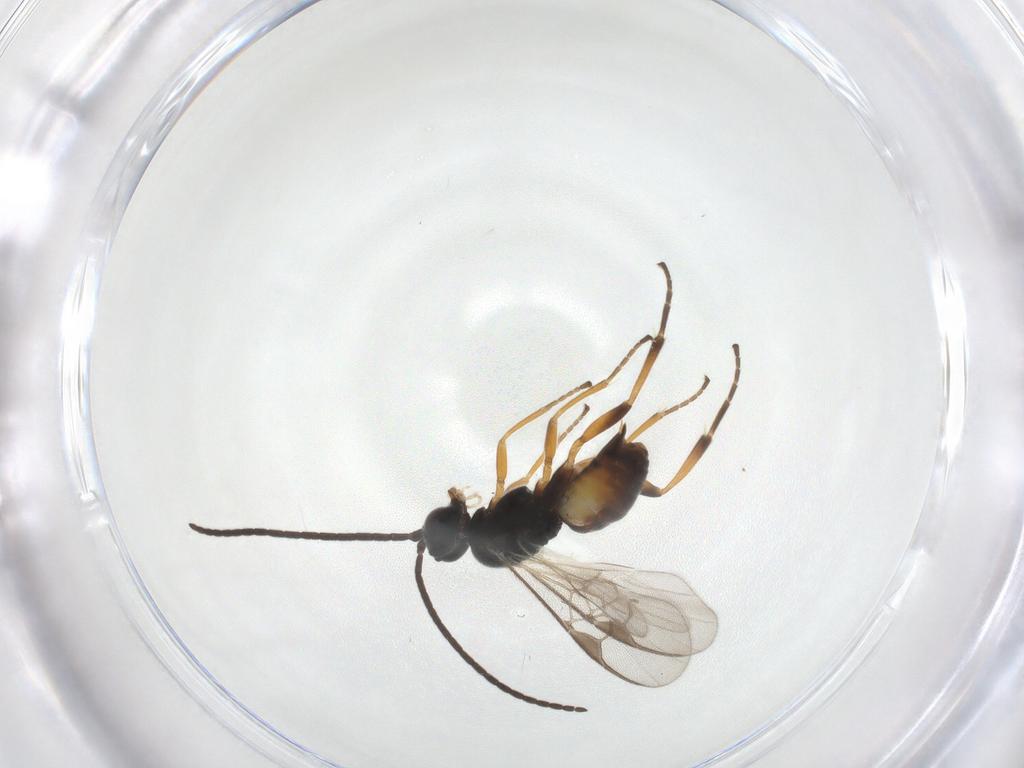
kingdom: Animalia
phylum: Arthropoda
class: Insecta
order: Hymenoptera
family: Braconidae
